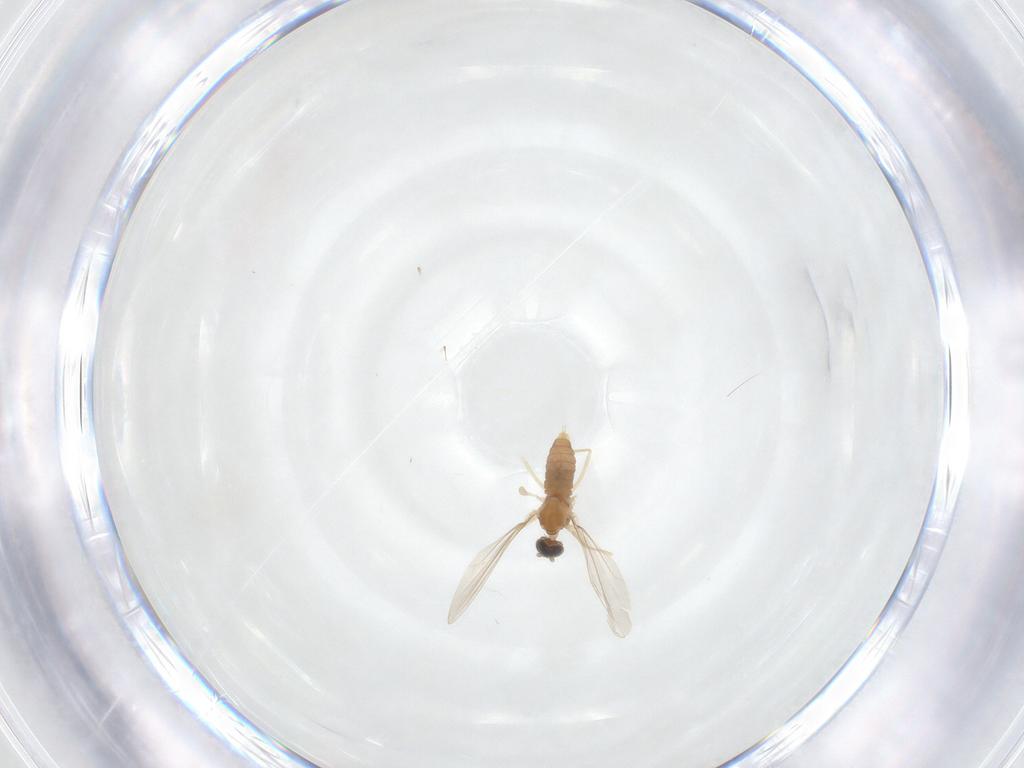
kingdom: Animalia
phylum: Arthropoda
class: Insecta
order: Diptera
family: Cecidomyiidae
